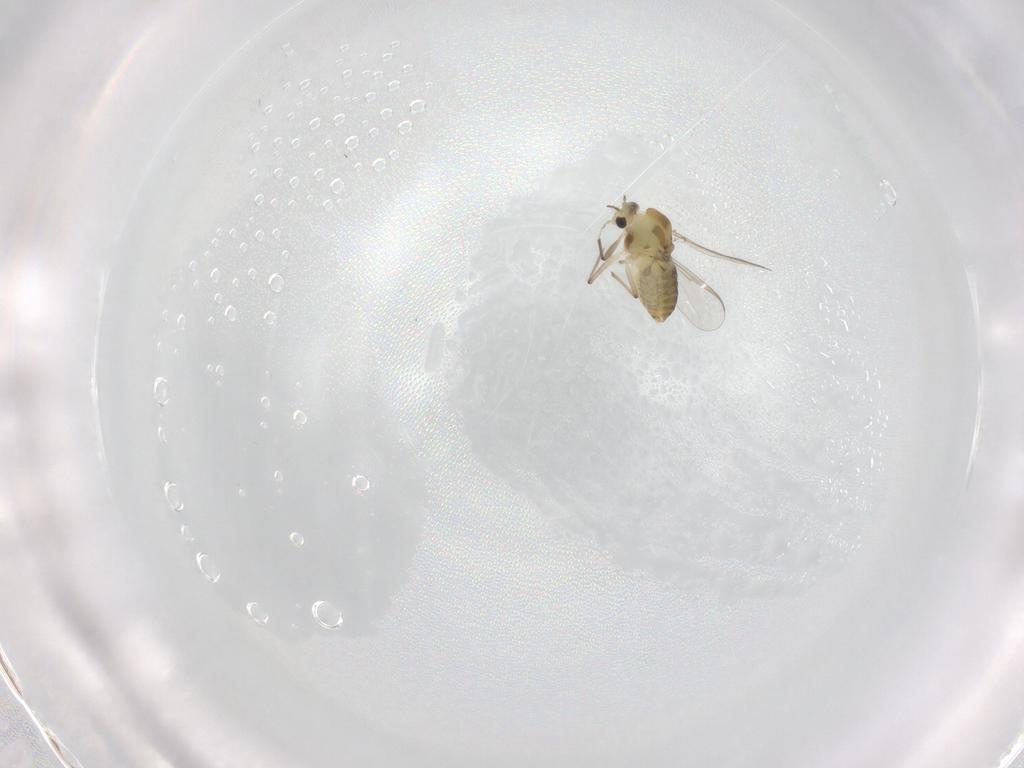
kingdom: Animalia
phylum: Arthropoda
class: Insecta
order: Diptera
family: Chironomidae
